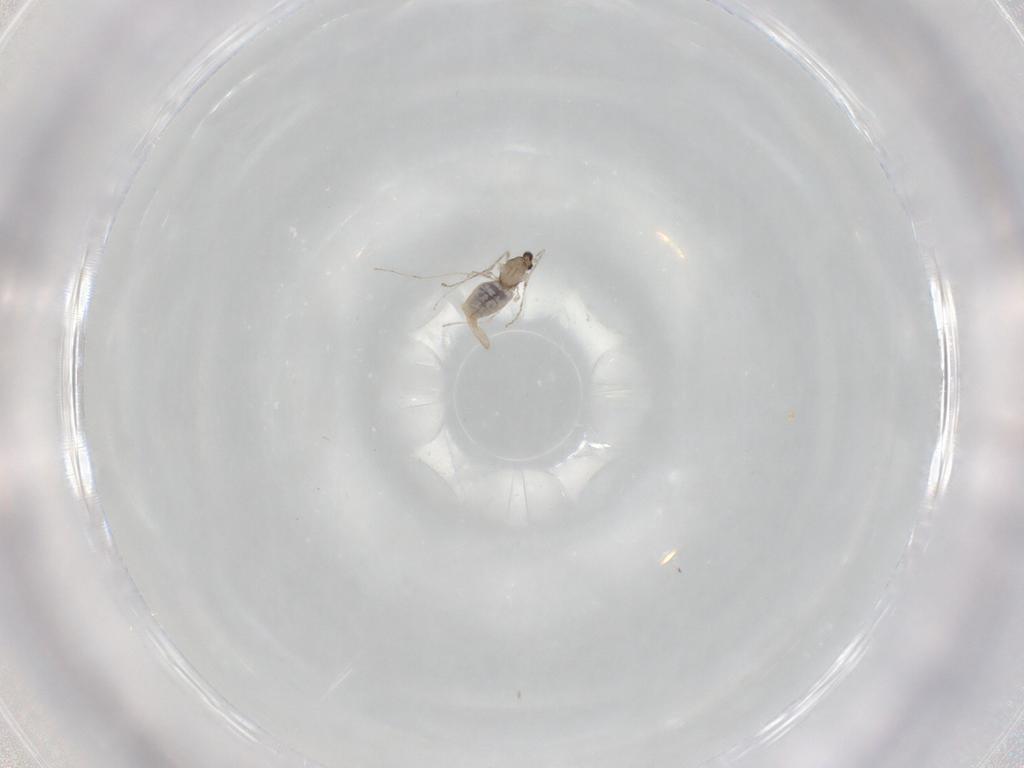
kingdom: Animalia
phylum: Arthropoda
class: Insecta
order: Diptera
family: Cecidomyiidae
